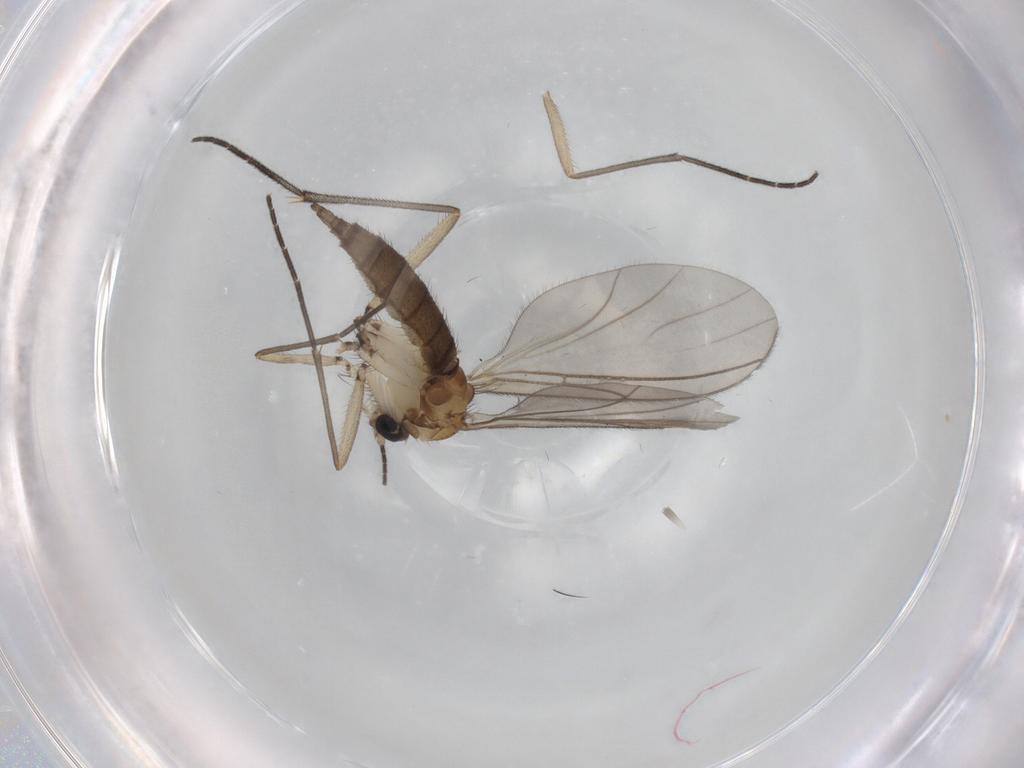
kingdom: Animalia
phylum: Arthropoda
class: Insecta
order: Diptera
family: Sciaridae
